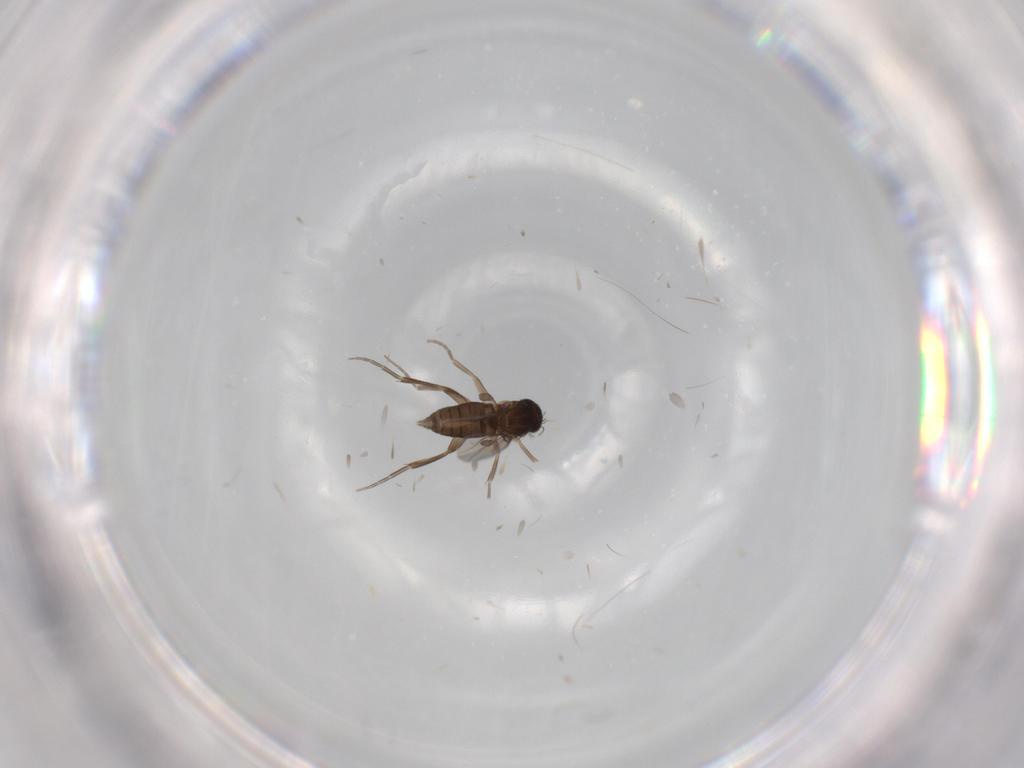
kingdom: Animalia
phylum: Arthropoda
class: Insecta
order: Diptera
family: Phoridae
